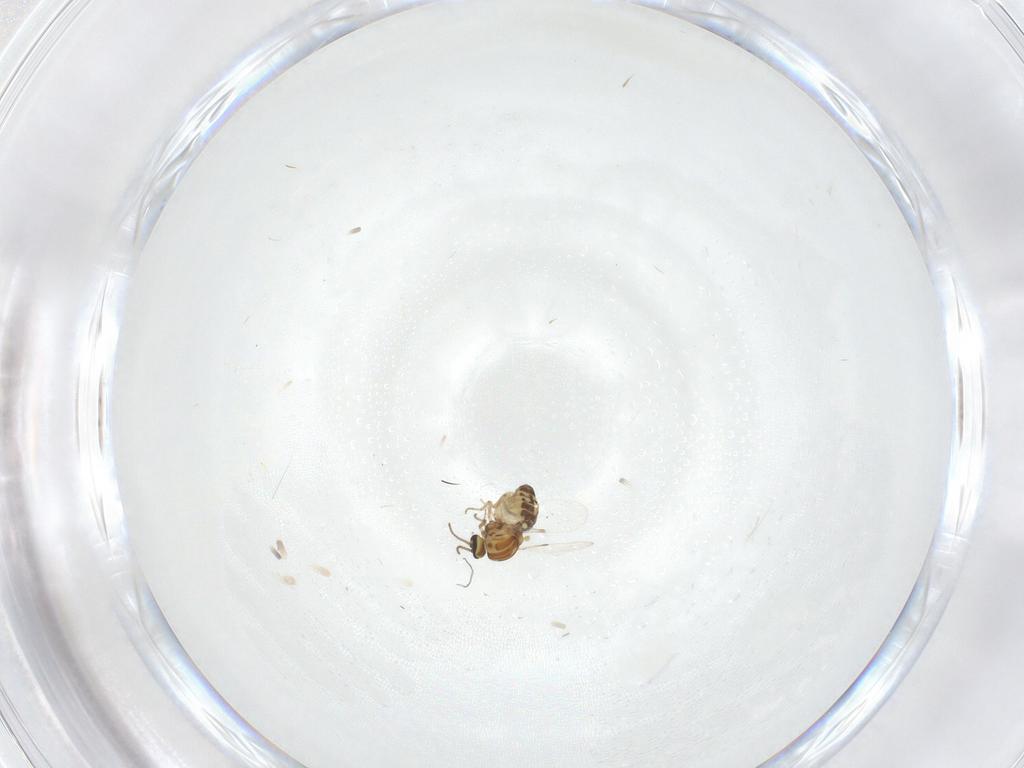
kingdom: Animalia
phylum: Arthropoda
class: Insecta
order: Diptera
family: Ceratopogonidae
